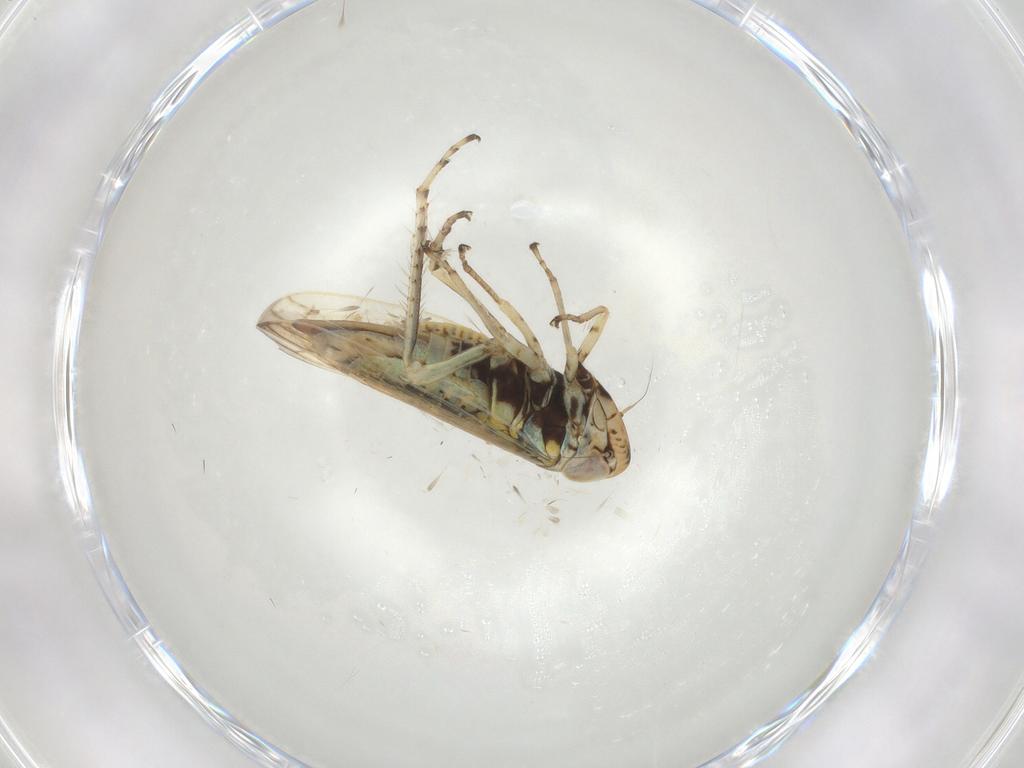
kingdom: Animalia
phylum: Arthropoda
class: Insecta
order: Hemiptera
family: Cicadellidae
